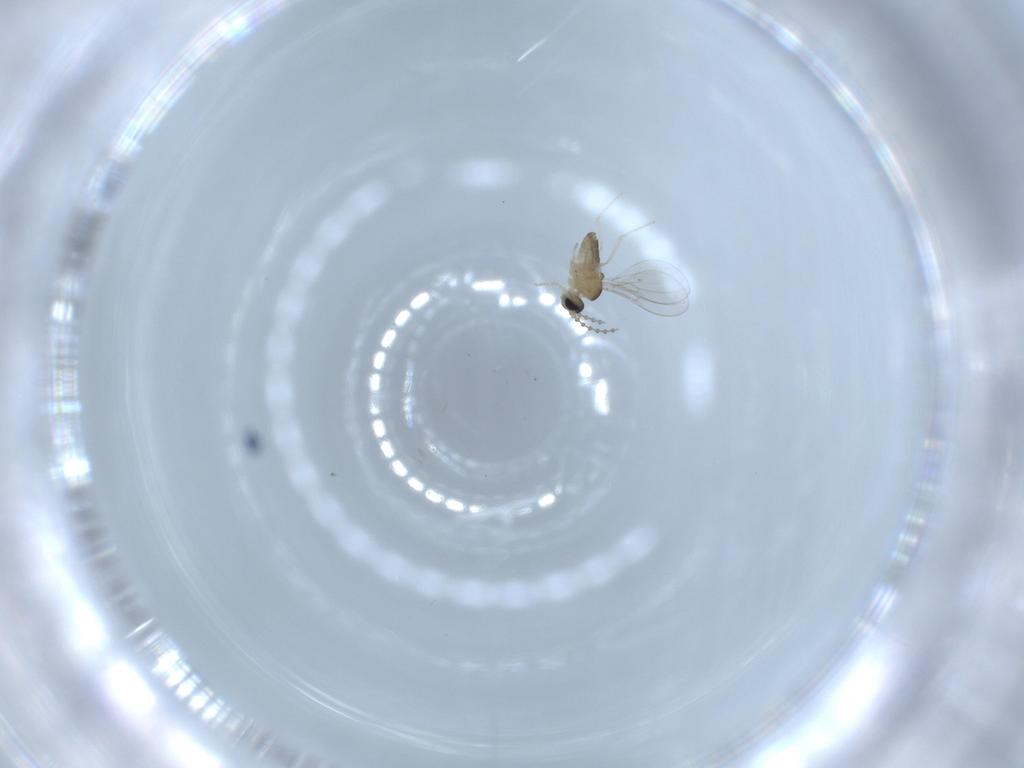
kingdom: Animalia
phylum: Arthropoda
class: Insecta
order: Diptera
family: Cecidomyiidae
